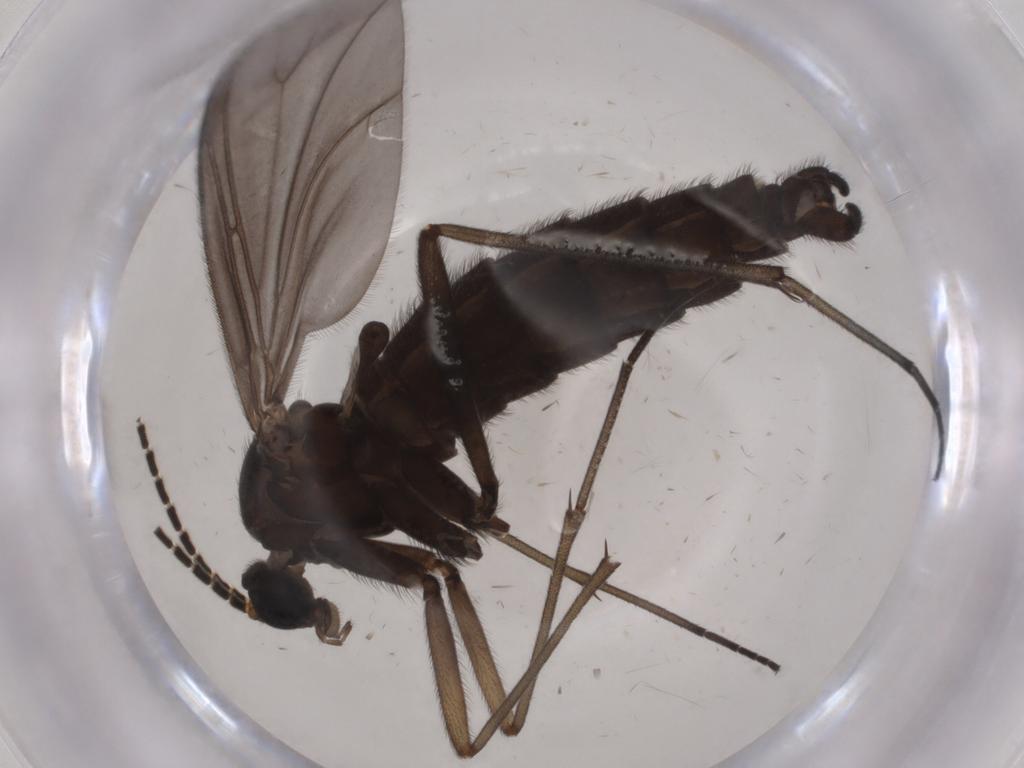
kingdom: Animalia
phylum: Arthropoda
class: Insecta
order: Diptera
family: Sciaridae
